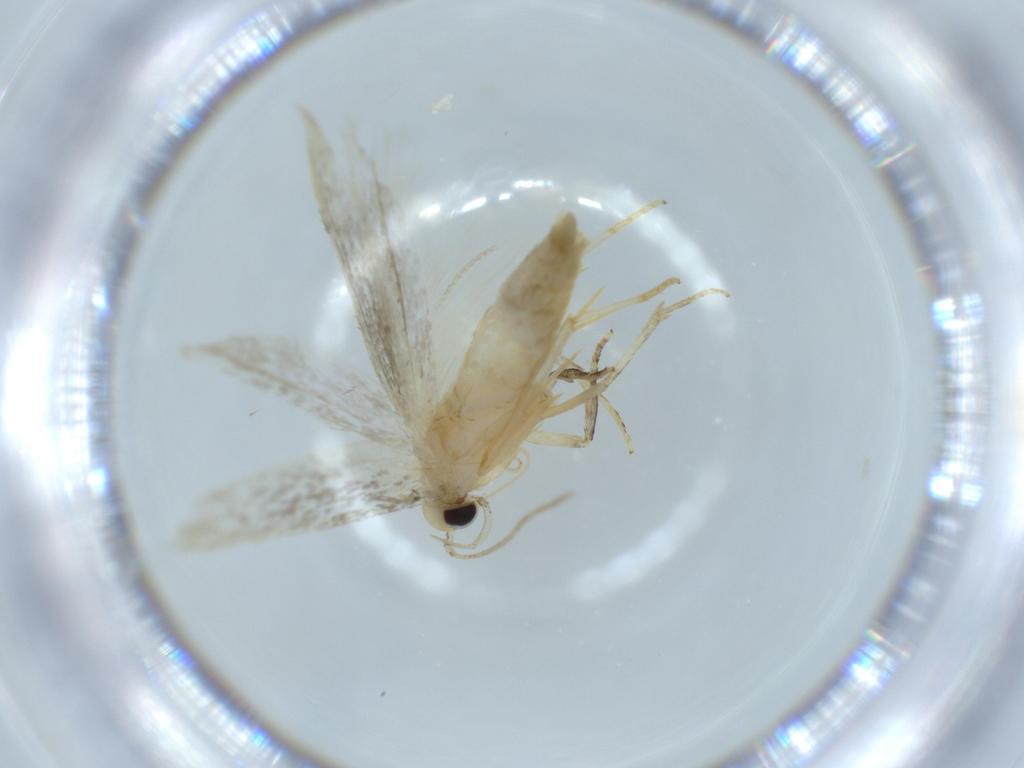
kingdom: Animalia
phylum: Arthropoda
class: Insecta
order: Lepidoptera
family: Autostichidae
